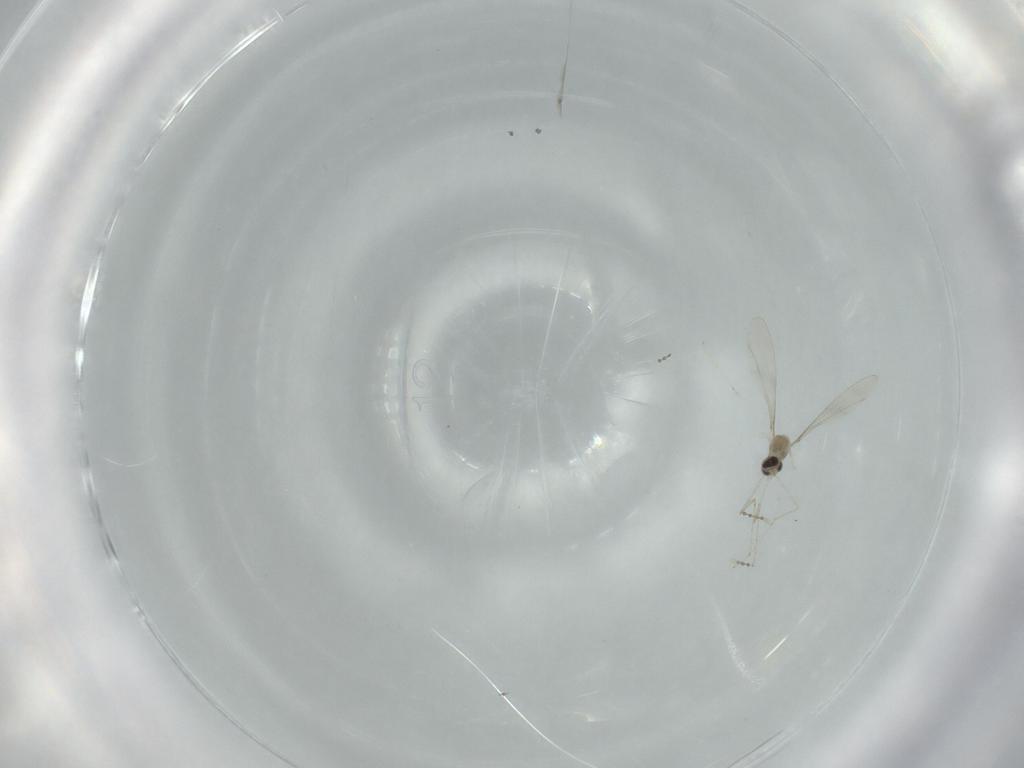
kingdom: Animalia
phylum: Arthropoda
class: Insecta
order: Diptera
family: Cecidomyiidae
